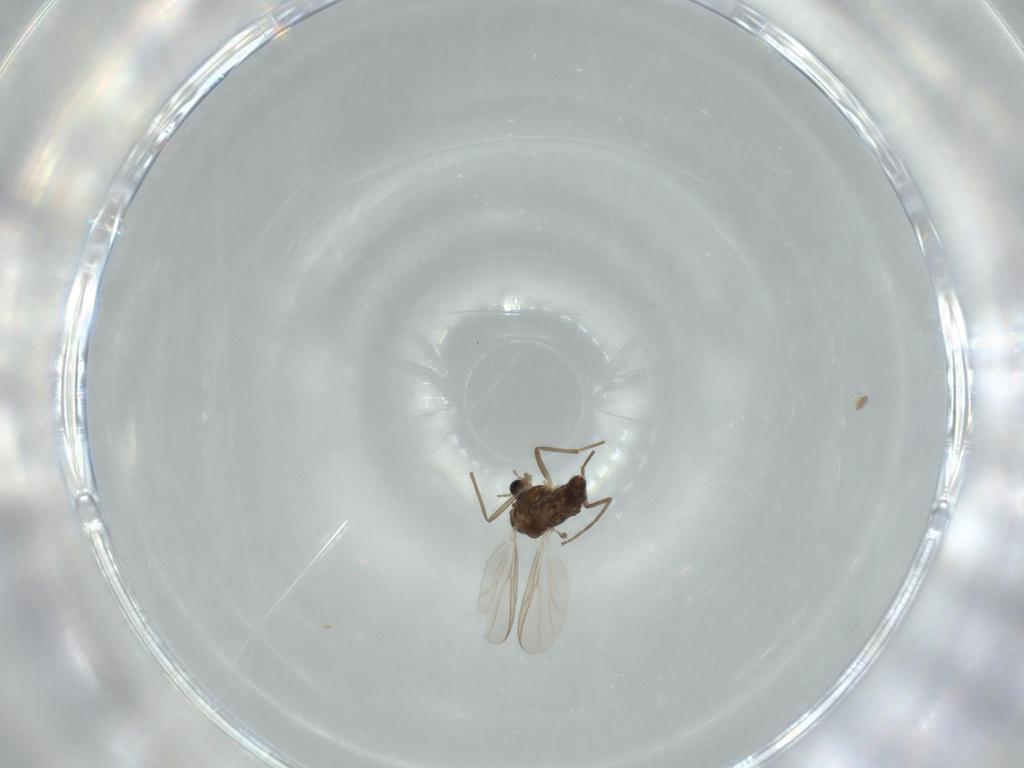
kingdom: Animalia
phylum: Arthropoda
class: Insecta
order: Diptera
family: Chironomidae
